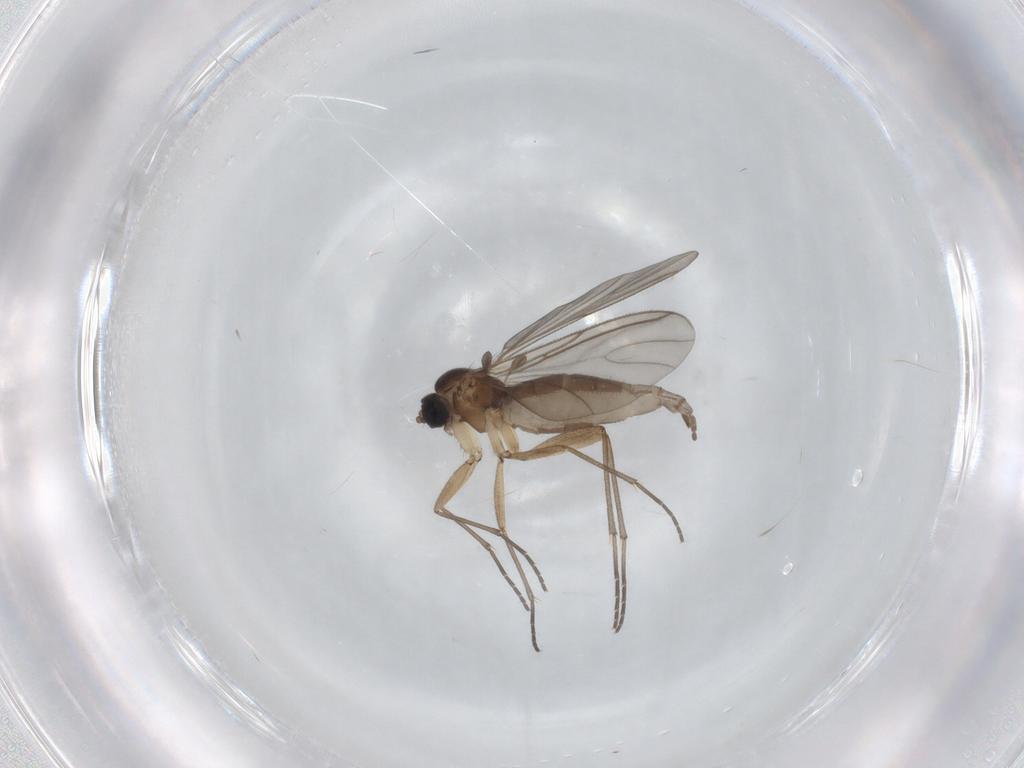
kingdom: Animalia
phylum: Arthropoda
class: Insecta
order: Diptera
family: Sciaridae
